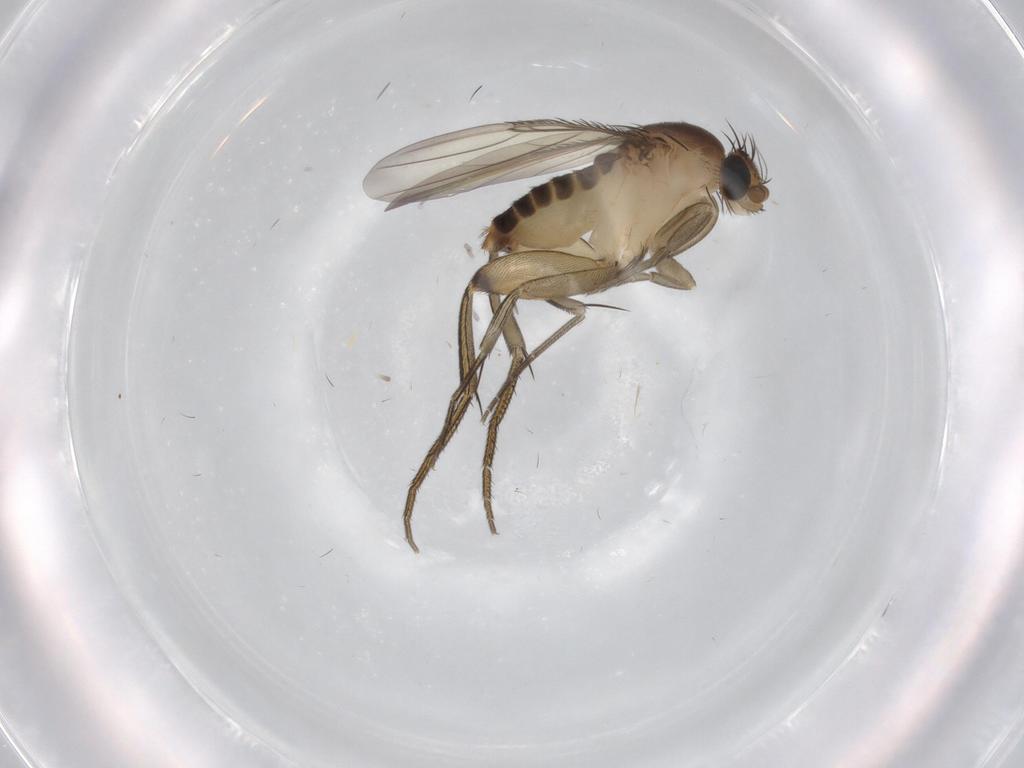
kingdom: Animalia
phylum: Arthropoda
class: Insecta
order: Diptera
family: Phoridae
